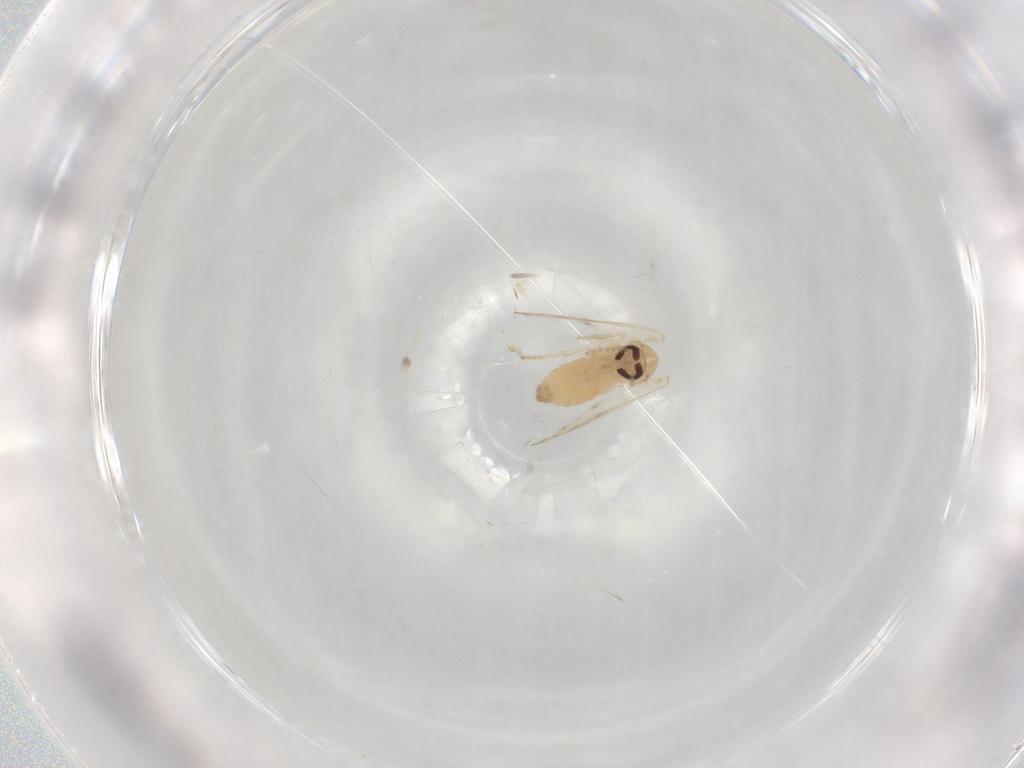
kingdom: Animalia
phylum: Arthropoda
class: Insecta
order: Diptera
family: Psychodidae
